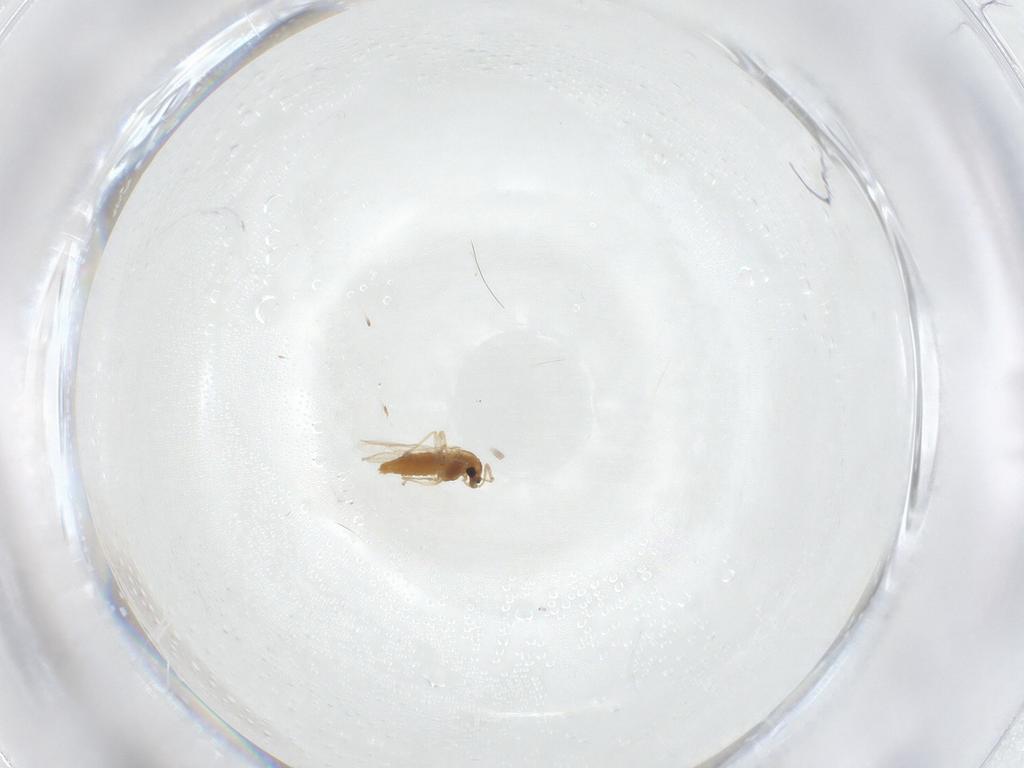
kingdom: Animalia
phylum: Arthropoda
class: Insecta
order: Diptera
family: Chironomidae
